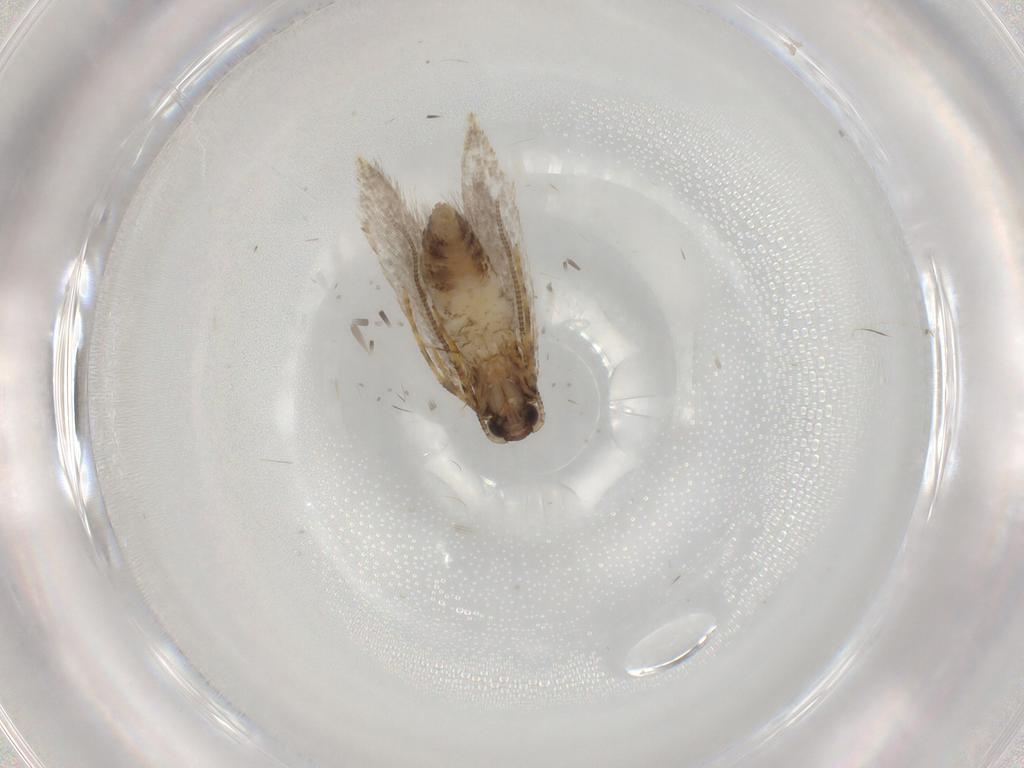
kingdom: Animalia
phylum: Arthropoda
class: Insecta
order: Lepidoptera
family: Tineidae
